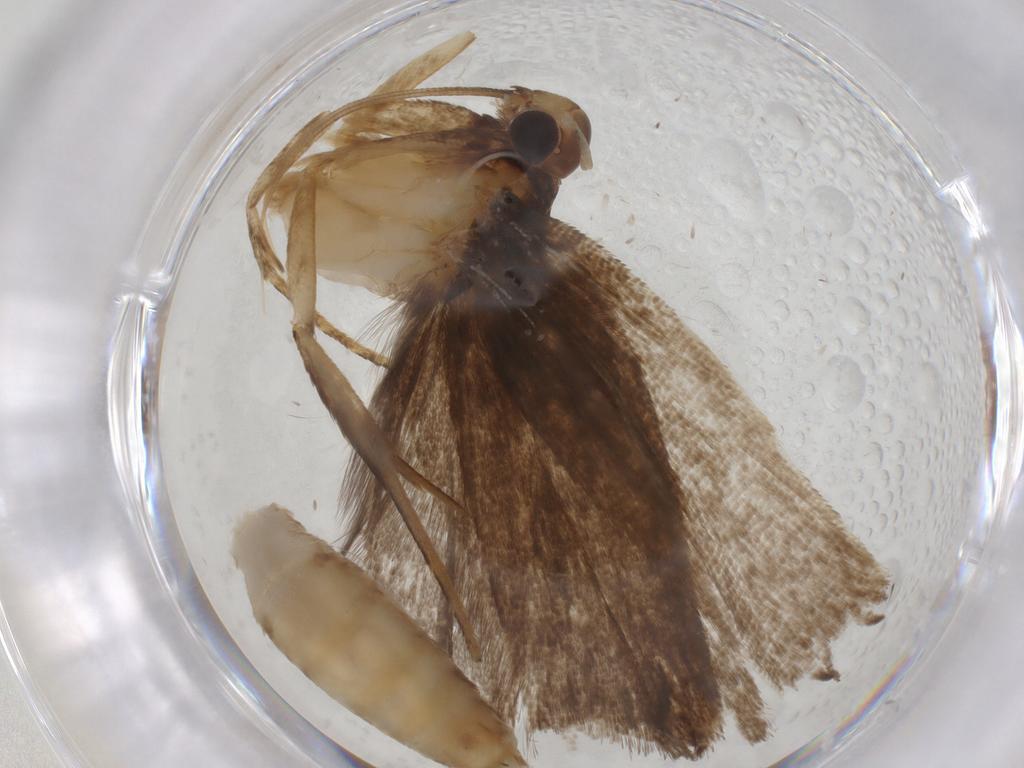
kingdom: Animalia
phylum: Arthropoda
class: Insecta
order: Lepidoptera
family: Gelechiidae
